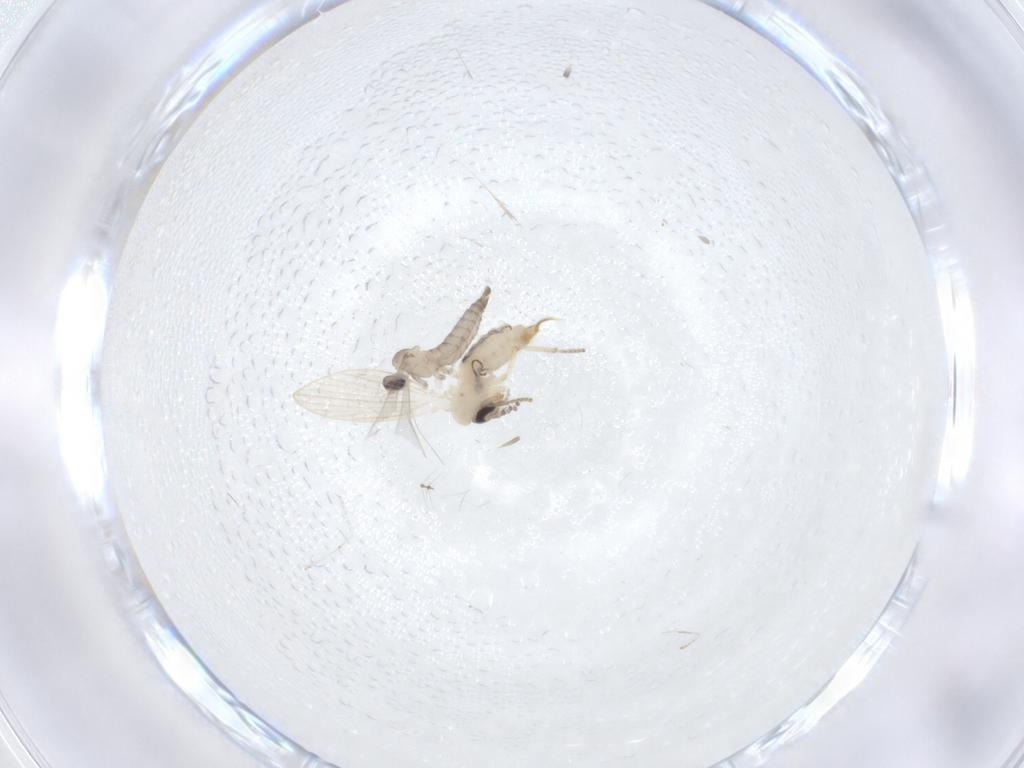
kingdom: Animalia
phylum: Arthropoda
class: Insecta
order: Diptera
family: Psychodidae
